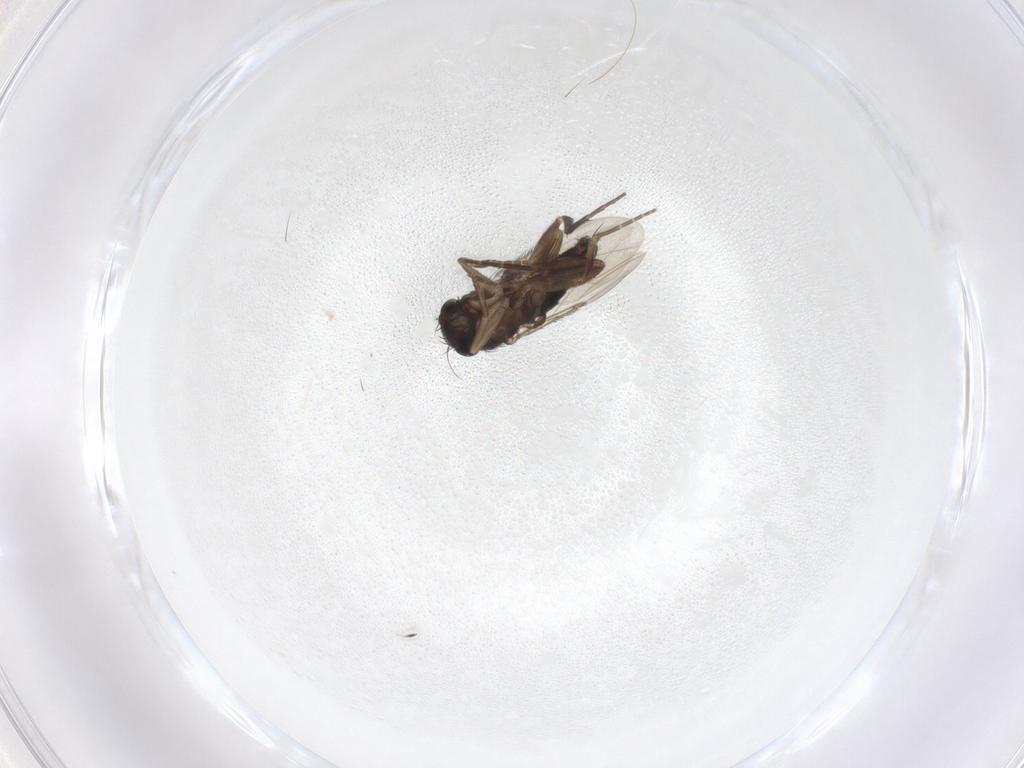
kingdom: Animalia
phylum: Arthropoda
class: Insecta
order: Diptera
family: Phoridae
